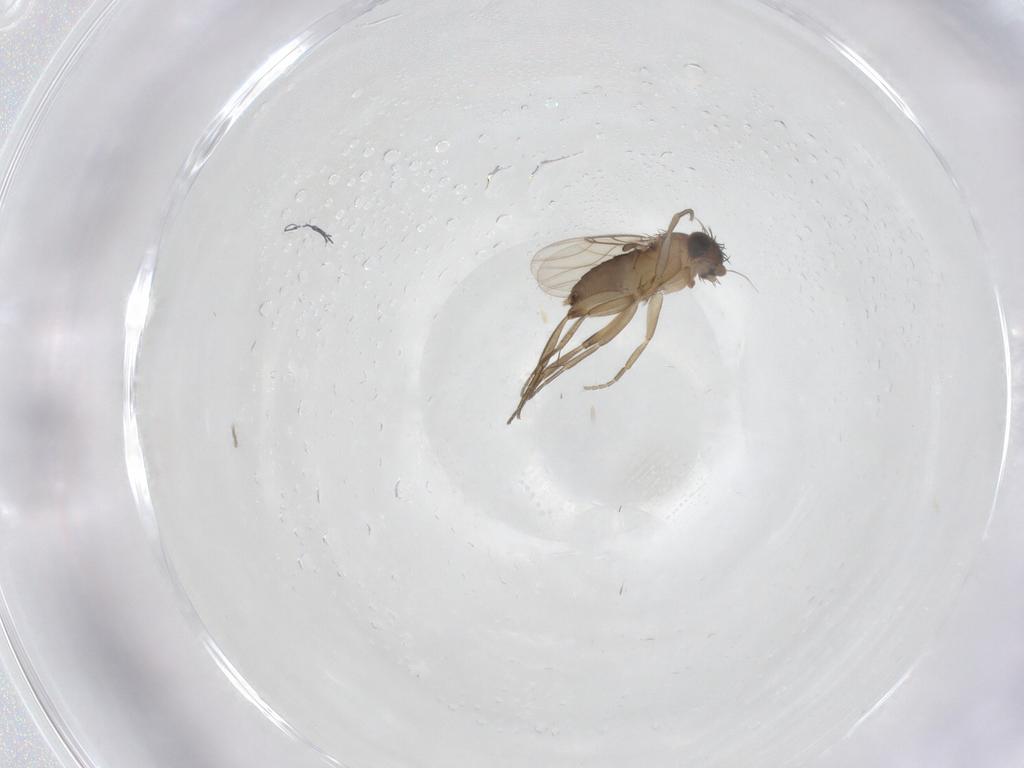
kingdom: Animalia
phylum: Arthropoda
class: Insecta
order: Diptera
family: Phoridae
